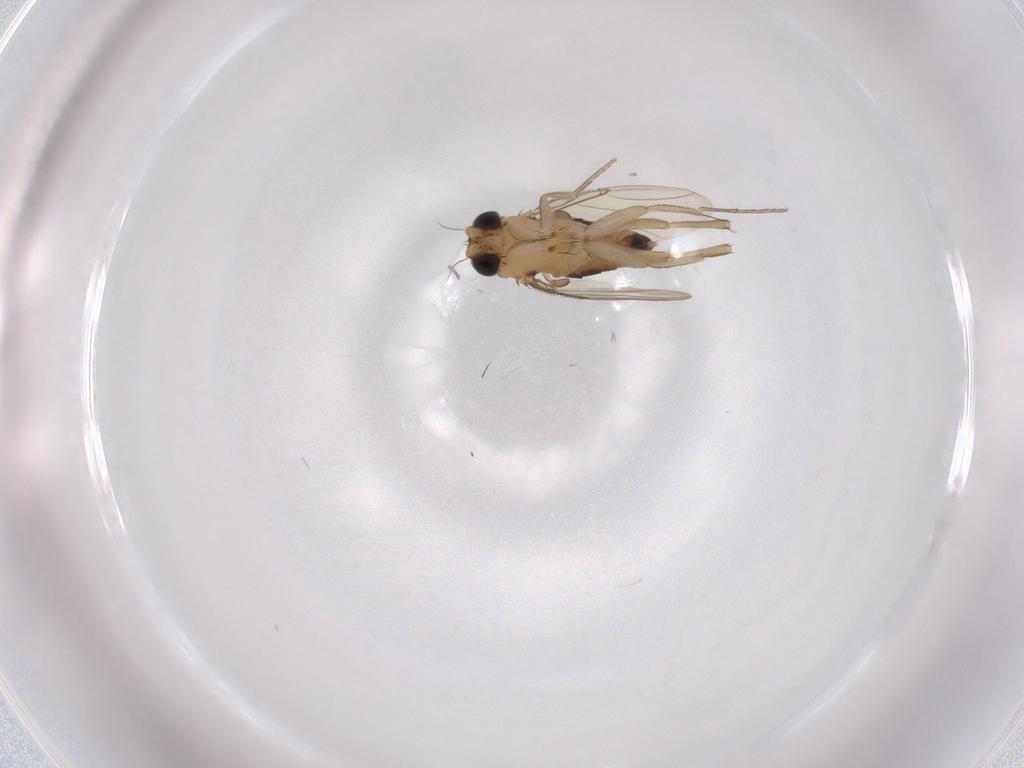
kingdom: Animalia
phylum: Arthropoda
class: Insecta
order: Diptera
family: Phoridae
